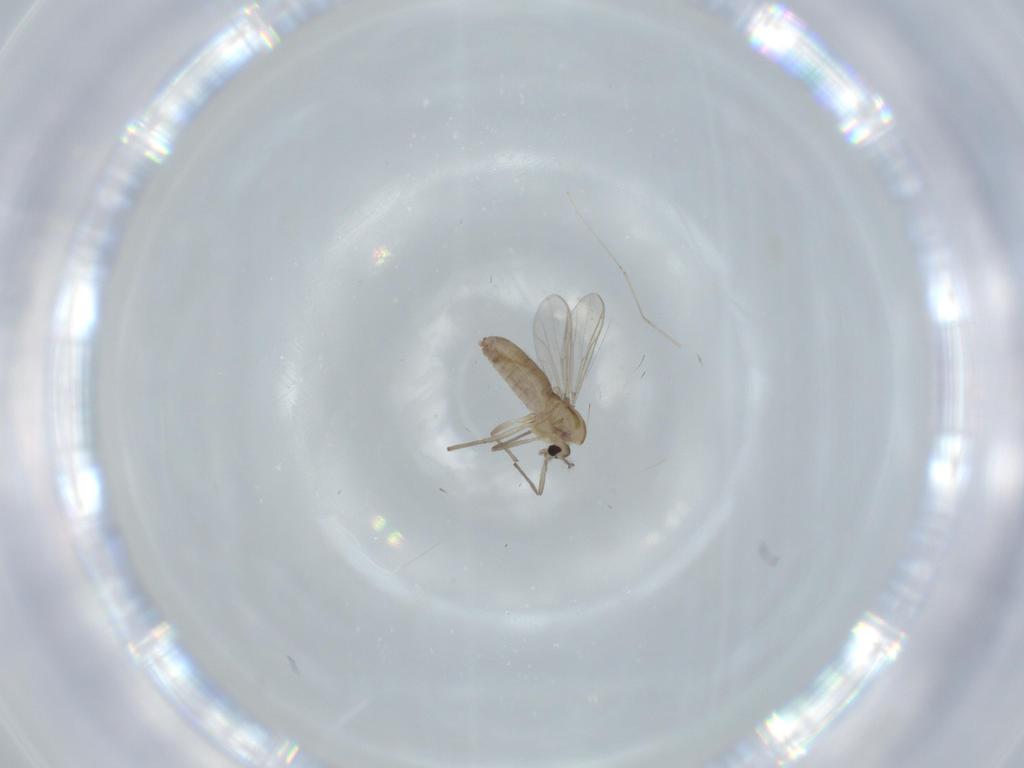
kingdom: Animalia
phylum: Arthropoda
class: Insecta
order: Diptera
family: Chironomidae
